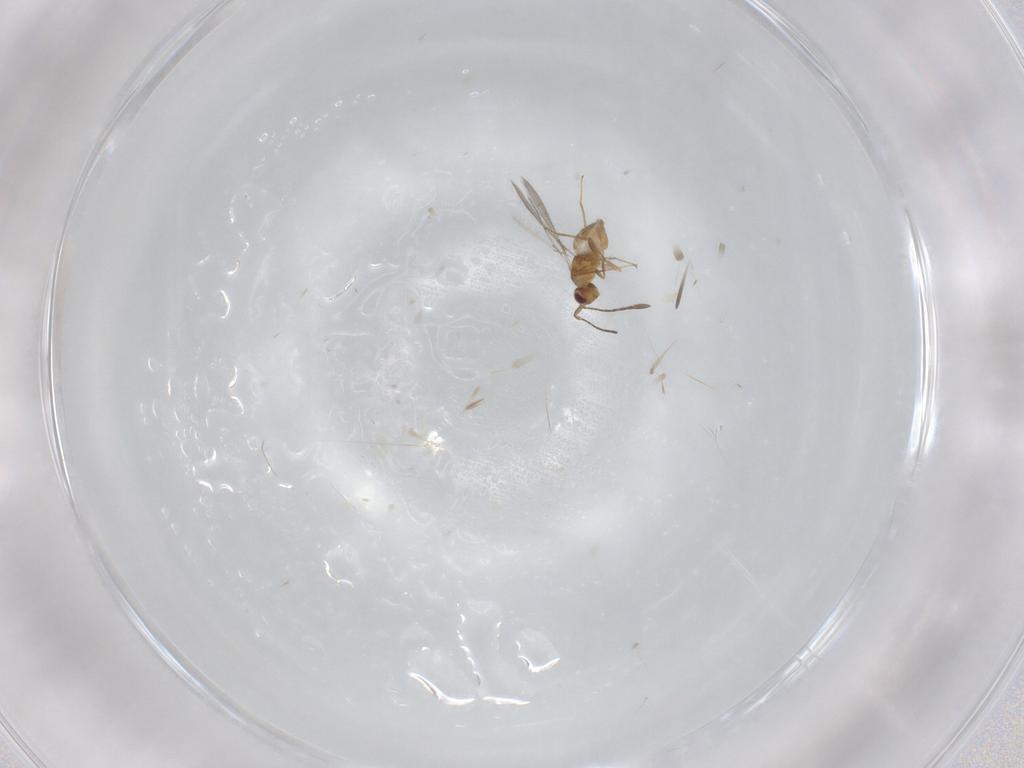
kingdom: Animalia
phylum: Arthropoda
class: Insecta
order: Hymenoptera
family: Mymaridae
